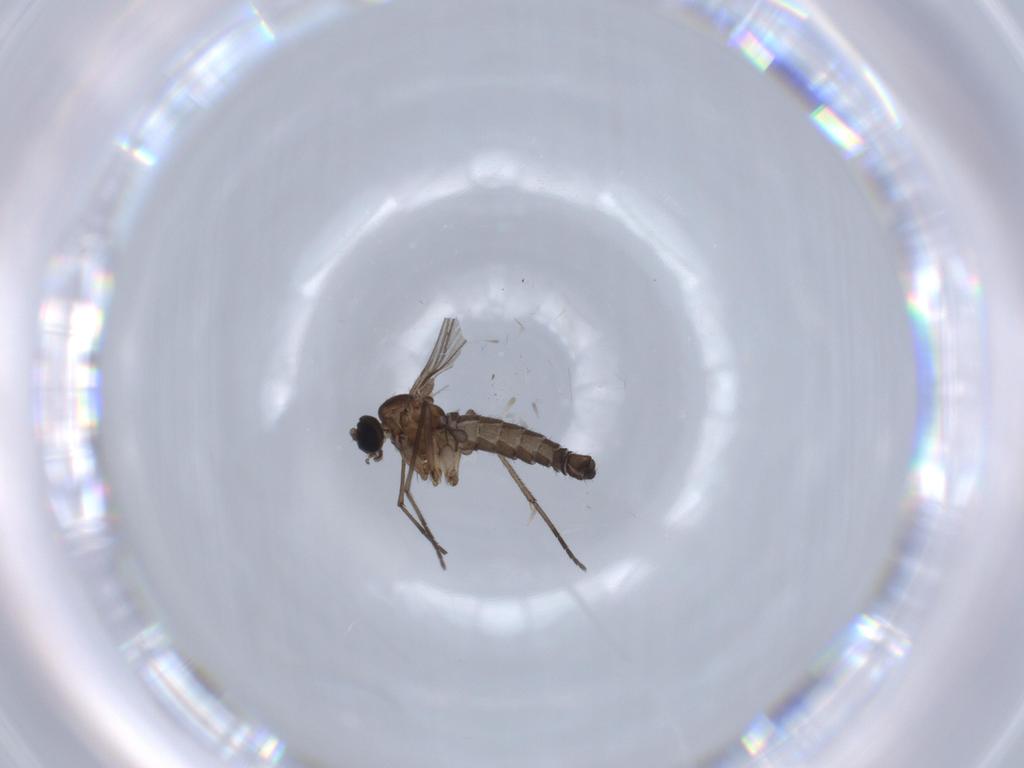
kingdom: Animalia
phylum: Arthropoda
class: Insecta
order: Diptera
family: Sciaridae
